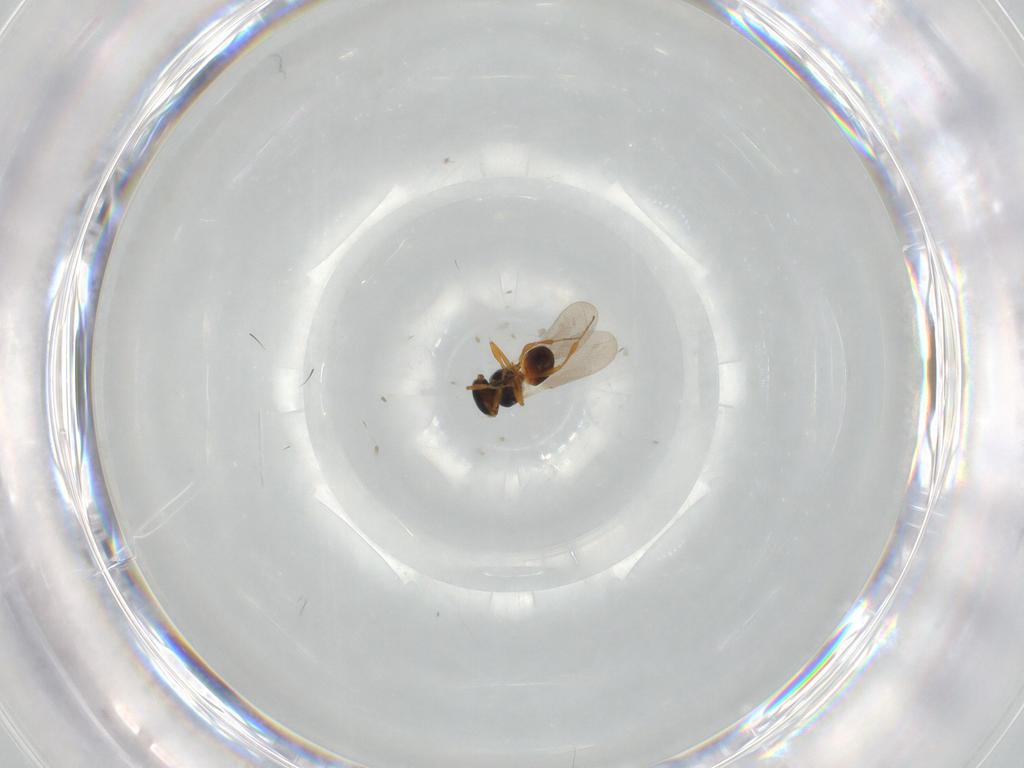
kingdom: Animalia
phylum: Arthropoda
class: Insecta
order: Hymenoptera
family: Platygastridae
